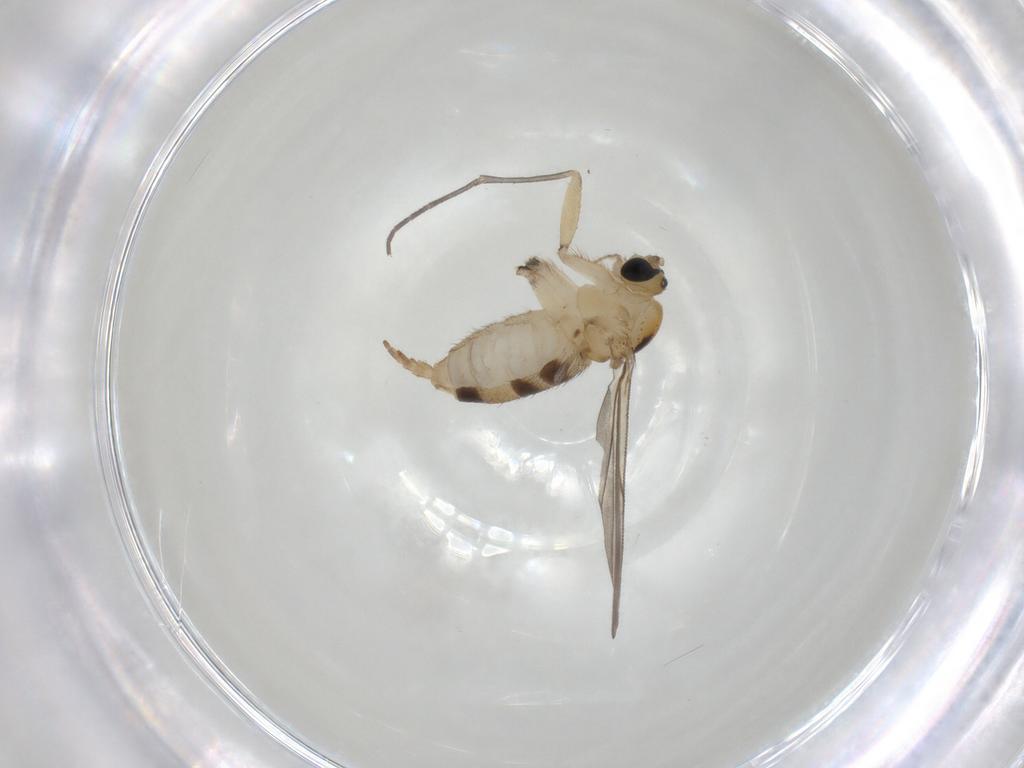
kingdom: Animalia
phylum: Arthropoda
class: Insecta
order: Diptera
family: Sciaridae
